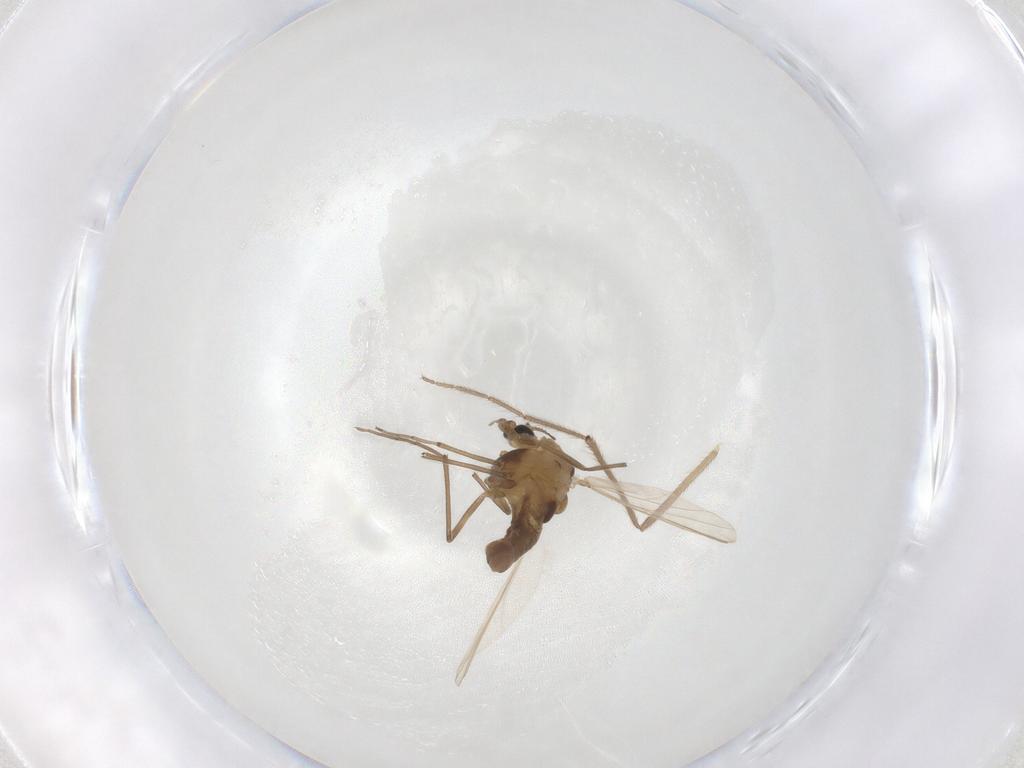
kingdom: Animalia
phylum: Arthropoda
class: Insecta
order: Diptera
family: Chironomidae
